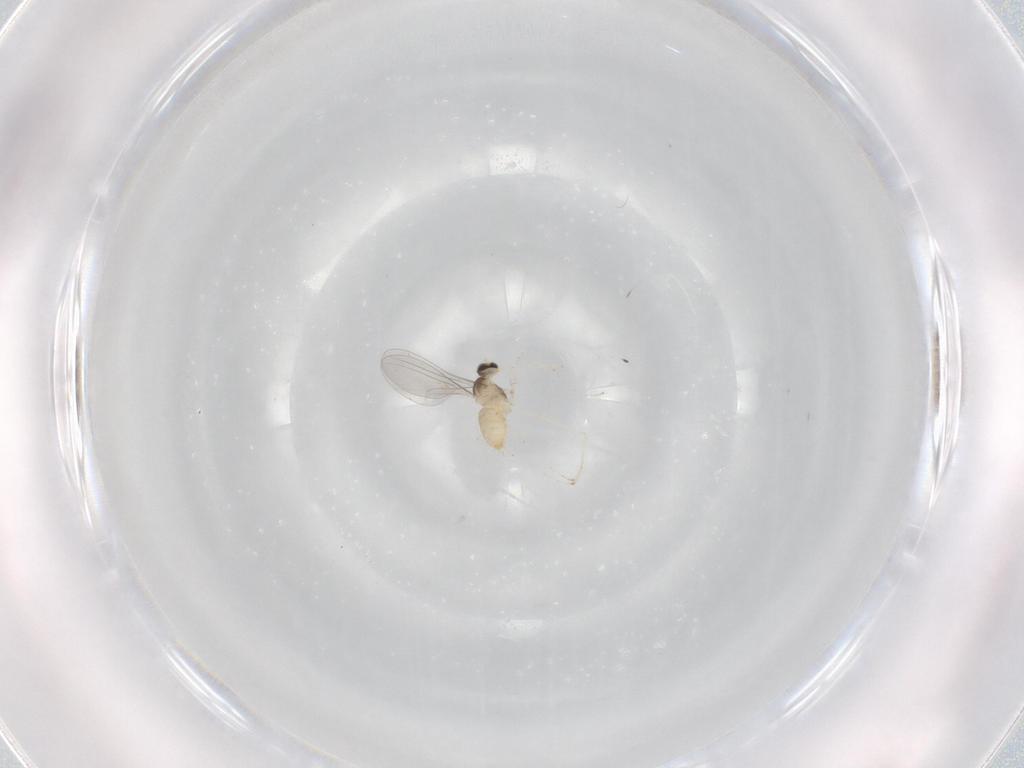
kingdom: Animalia
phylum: Arthropoda
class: Insecta
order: Diptera
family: Cecidomyiidae
